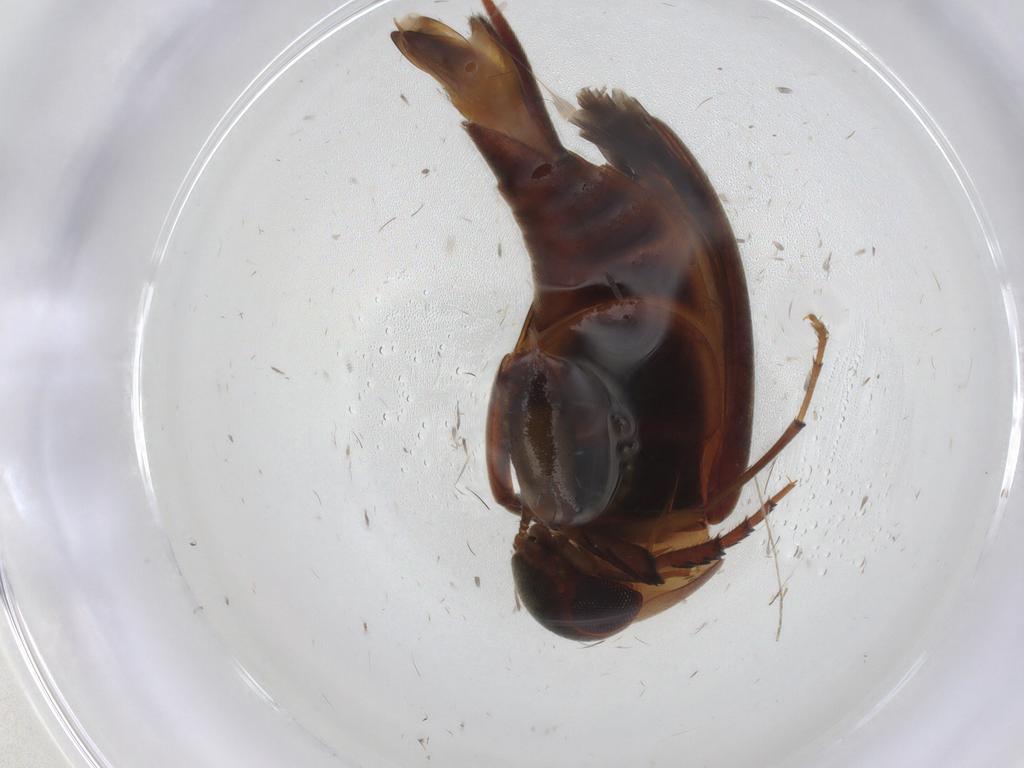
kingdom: Animalia
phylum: Arthropoda
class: Insecta
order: Coleoptera
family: Mordellidae
